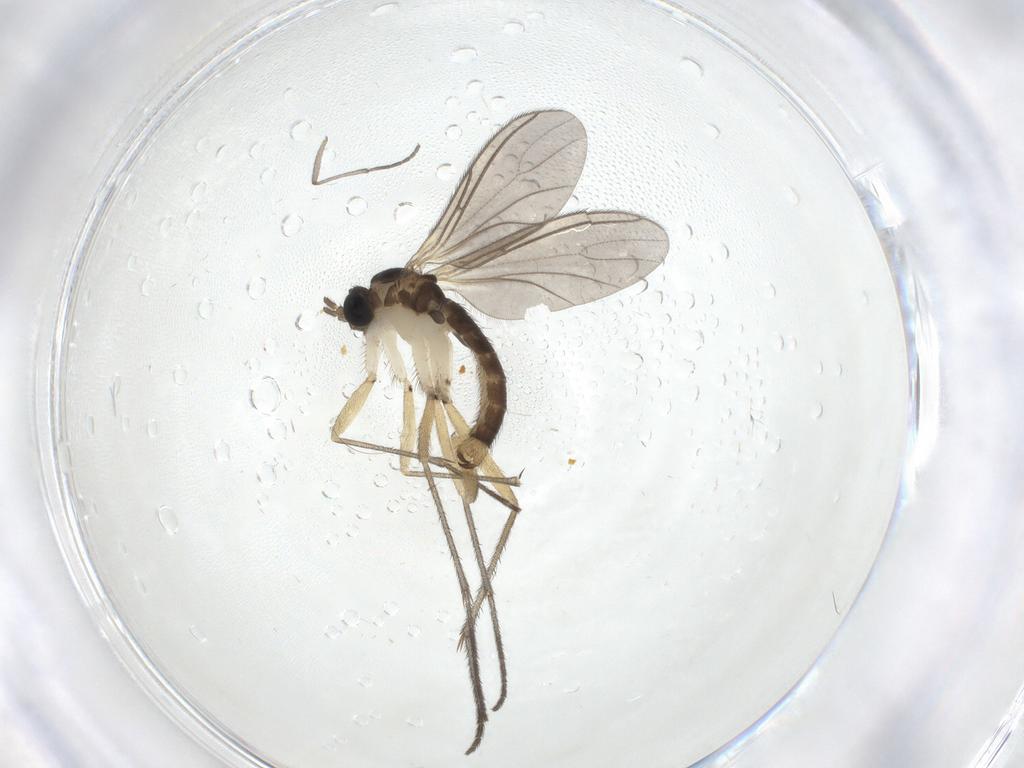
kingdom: Animalia
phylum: Arthropoda
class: Insecta
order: Diptera
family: Sciaridae
